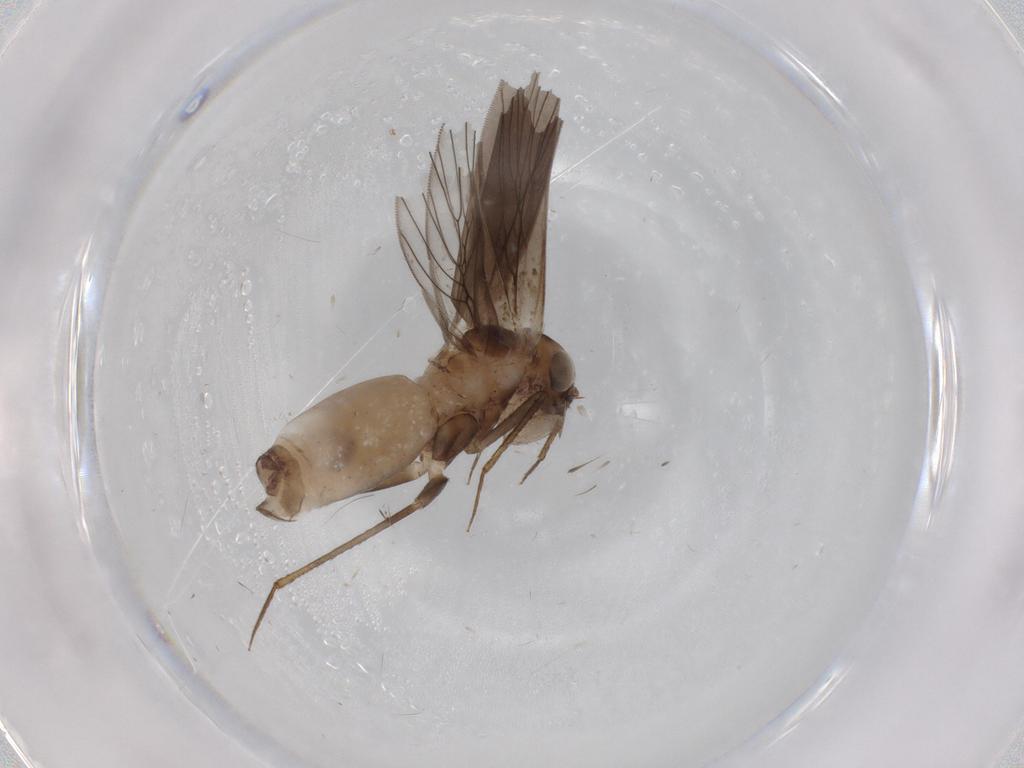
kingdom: Animalia
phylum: Arthropoda
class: Insecta
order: Psocodea
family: Lepidopsocidae
